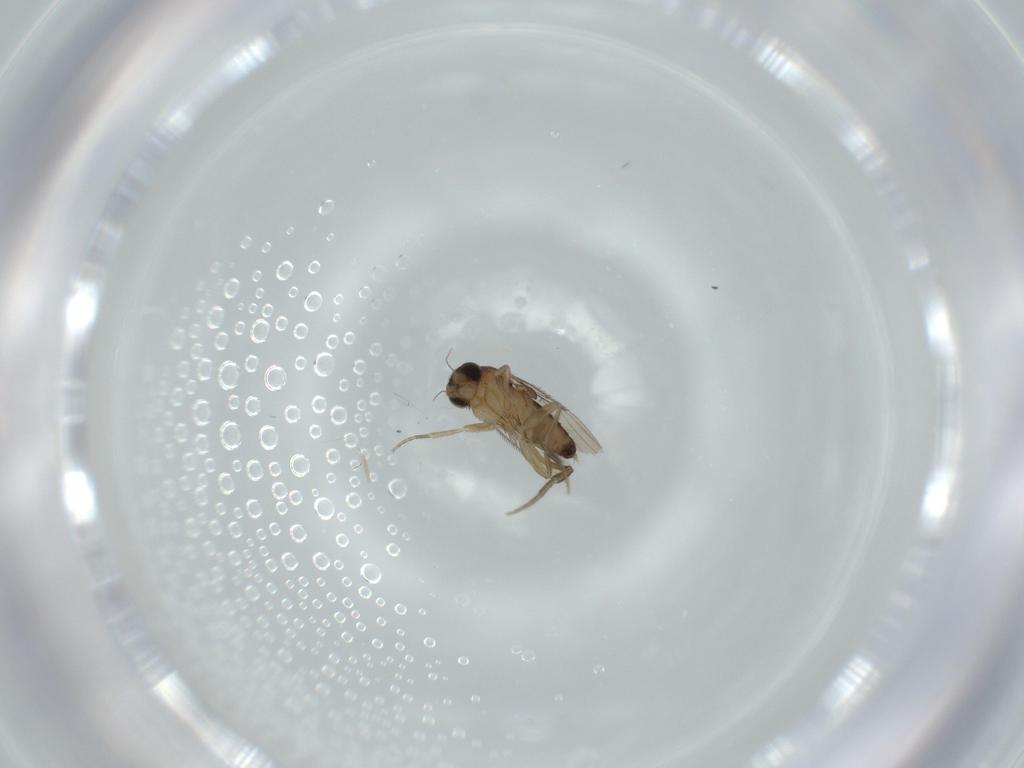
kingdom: Animalia
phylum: Arthropoda
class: Insecta
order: Diptera
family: Phoridae
